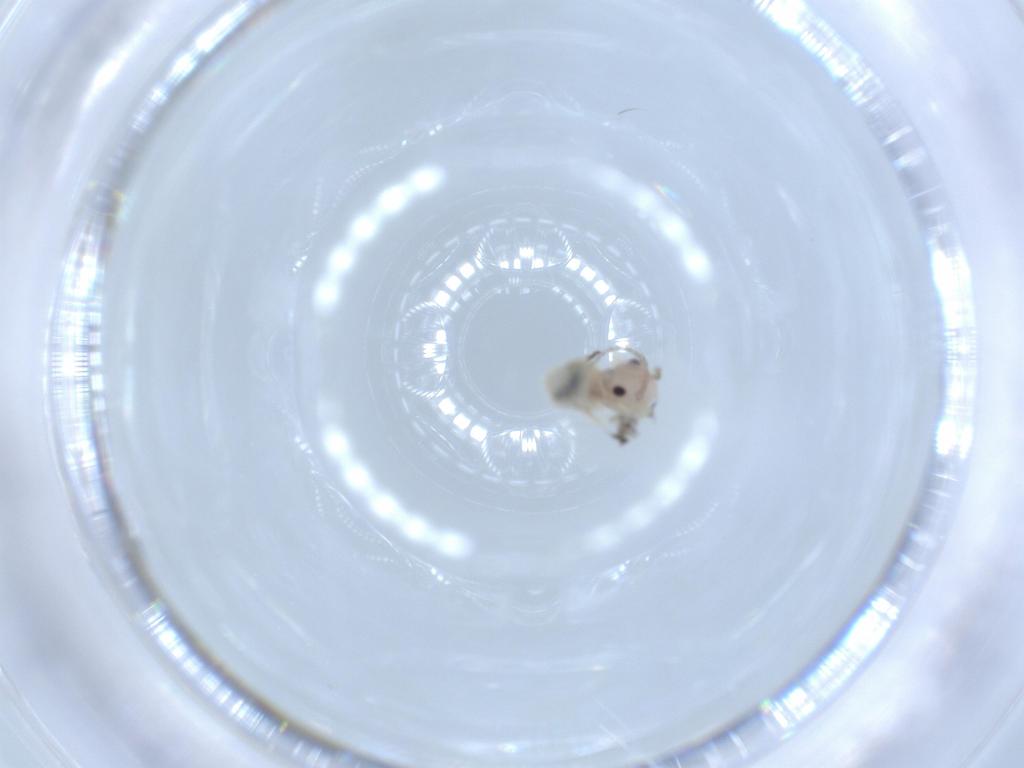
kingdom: Animalia
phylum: Arthropoda
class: Insecta
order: Psocodea
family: Amphipsocidae
